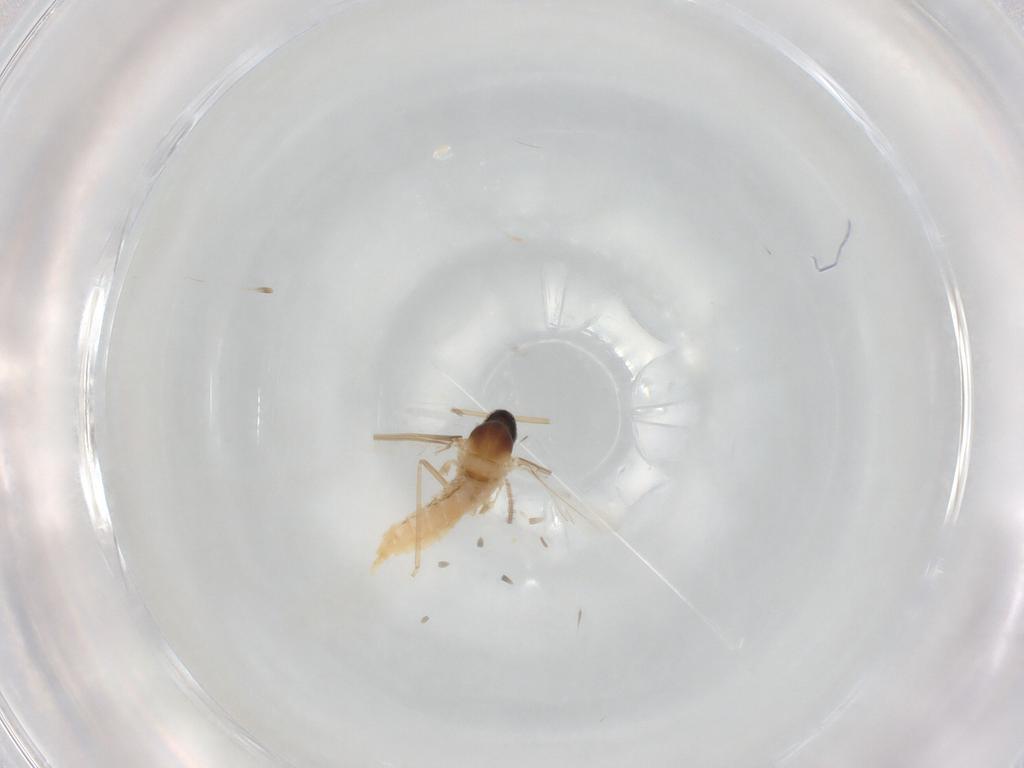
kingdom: Animalia
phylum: Arthropoda
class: Insecta
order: Diptera
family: Cecidomyiidae
